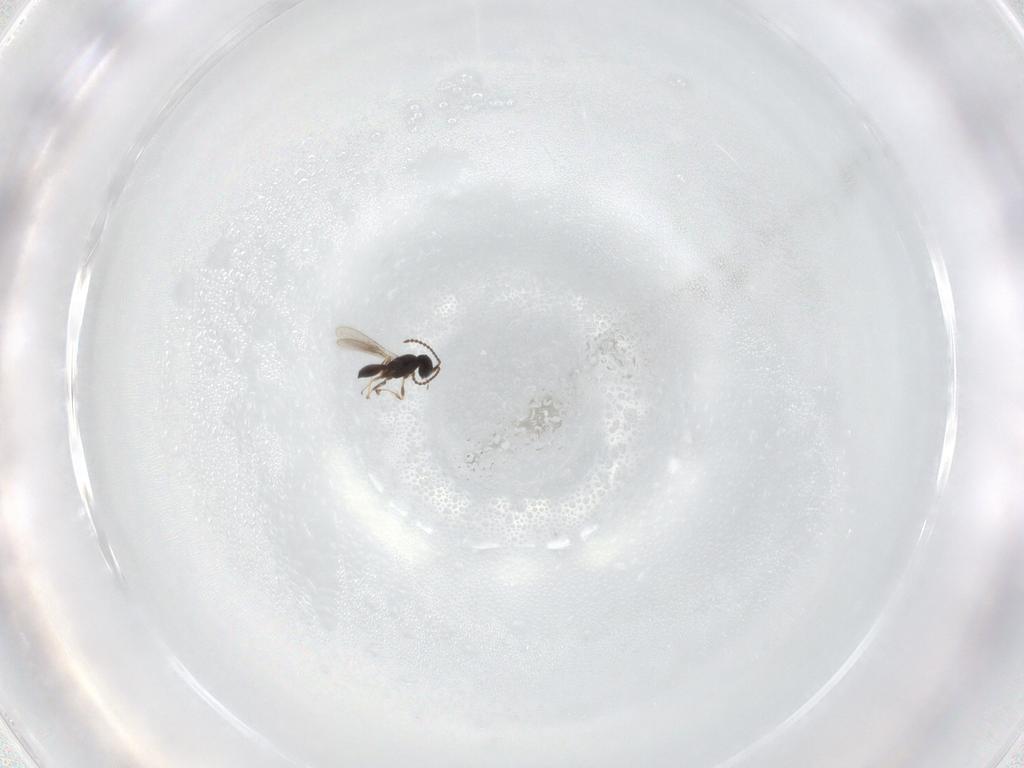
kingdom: Animalia
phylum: Arthropoda
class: Insecta
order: Hymenoptera
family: Scelionidae
